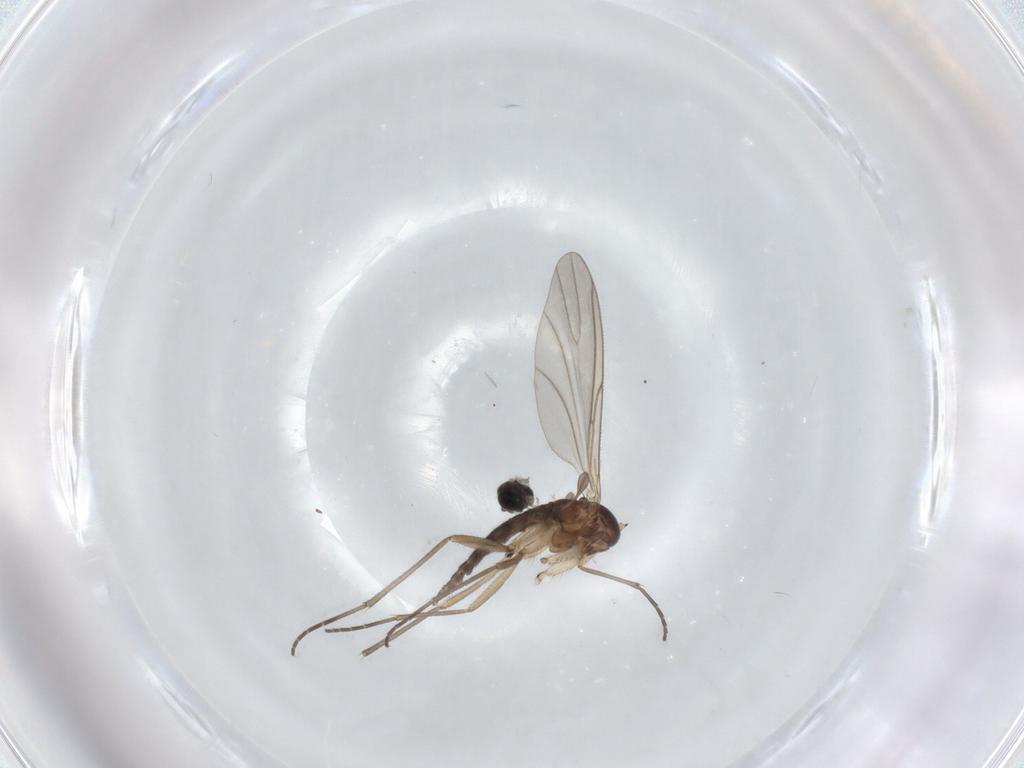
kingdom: Animalia
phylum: Arthropoda
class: Insecta
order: Diptera
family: Sciaridae
